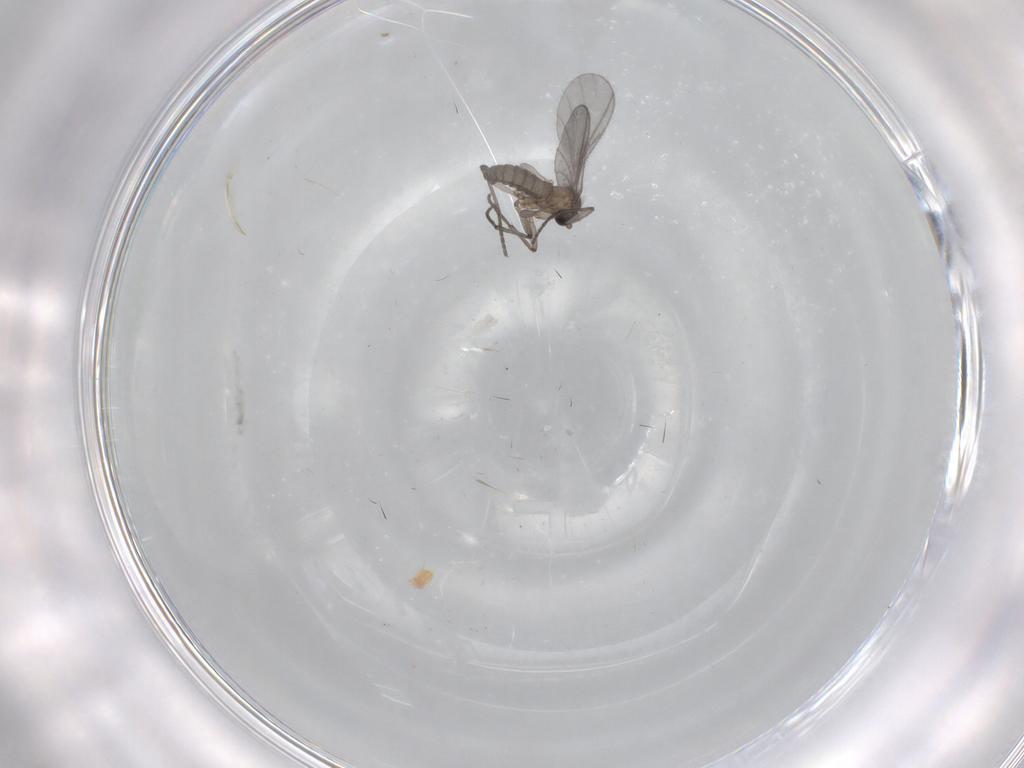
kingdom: Animalia
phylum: Arthropoda
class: Insecta
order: Diptera
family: Sciaridae
